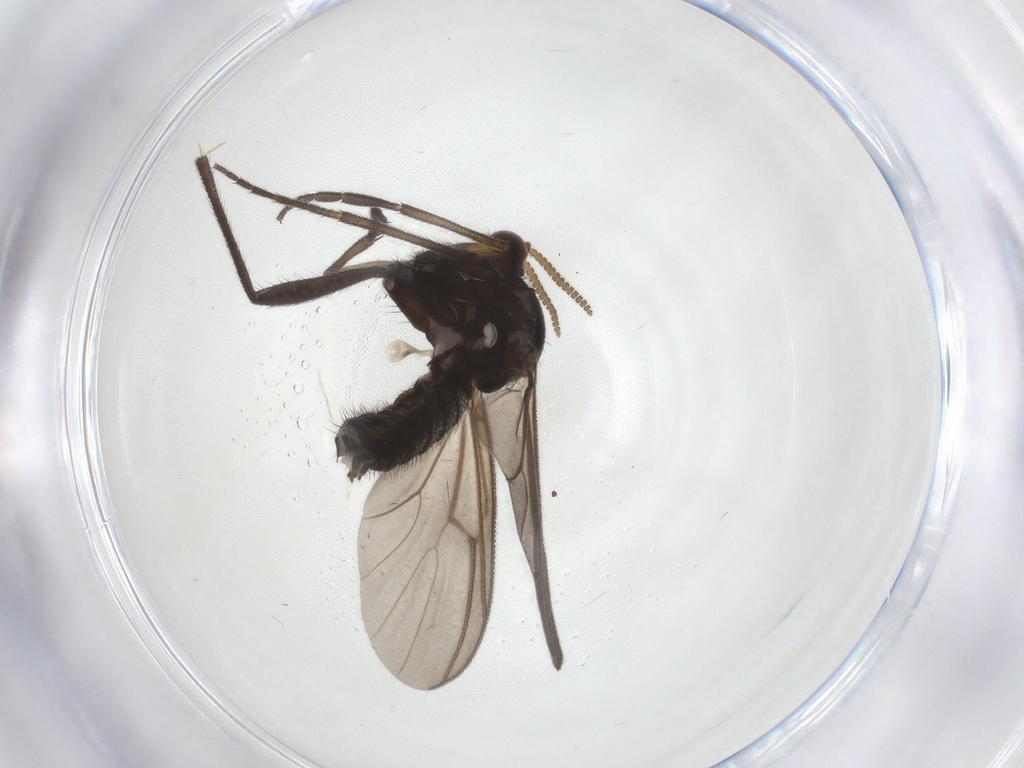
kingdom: Animalia
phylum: Arthropoda
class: Insecta
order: Diptera
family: Mycetophilidae
